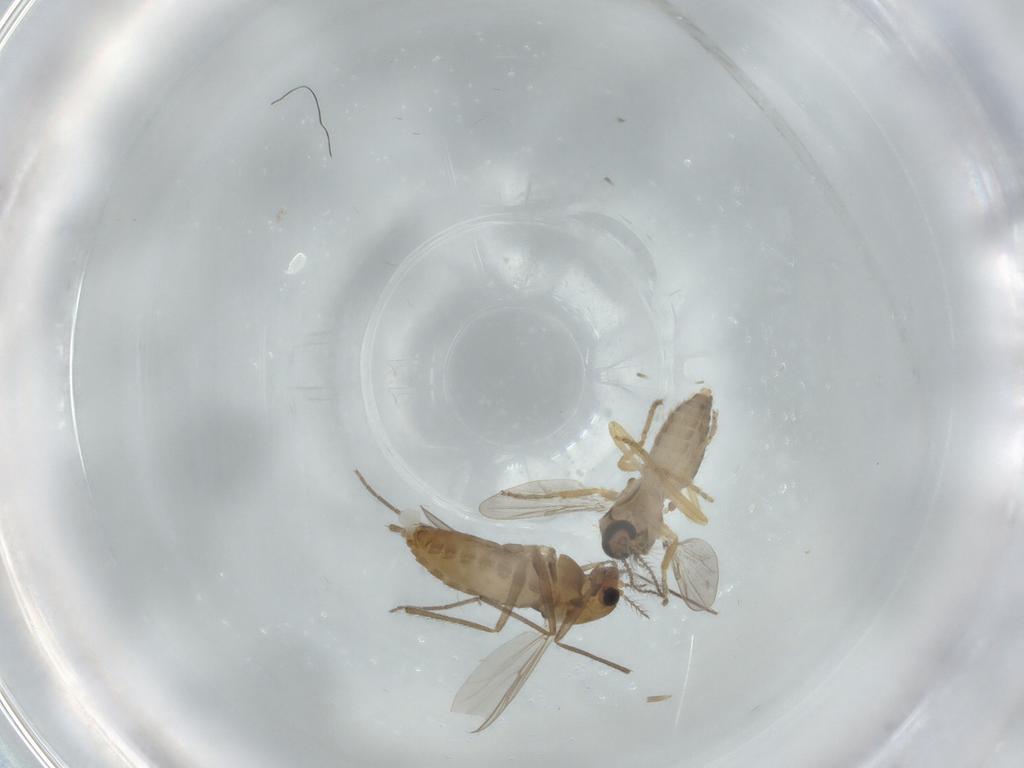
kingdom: Animalia
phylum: Arthropoda
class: Insecta
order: Diptera
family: Chironomidae
